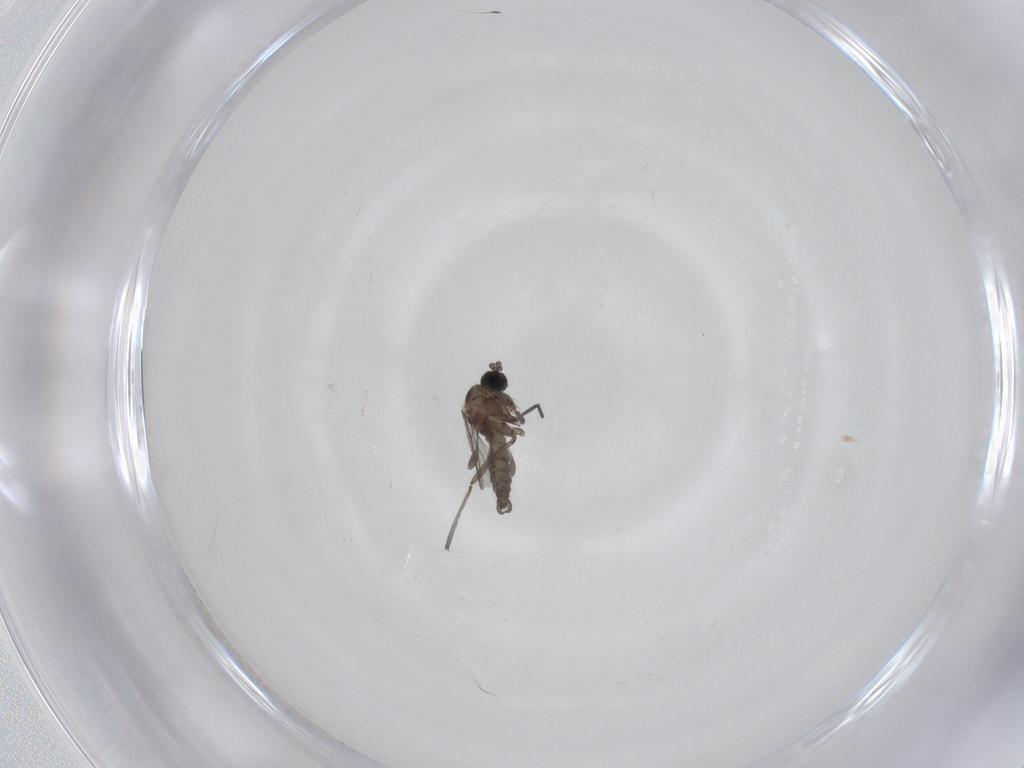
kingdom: Animalia
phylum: Arthropoda
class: Insecta
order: Diptera
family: Sciaridae
